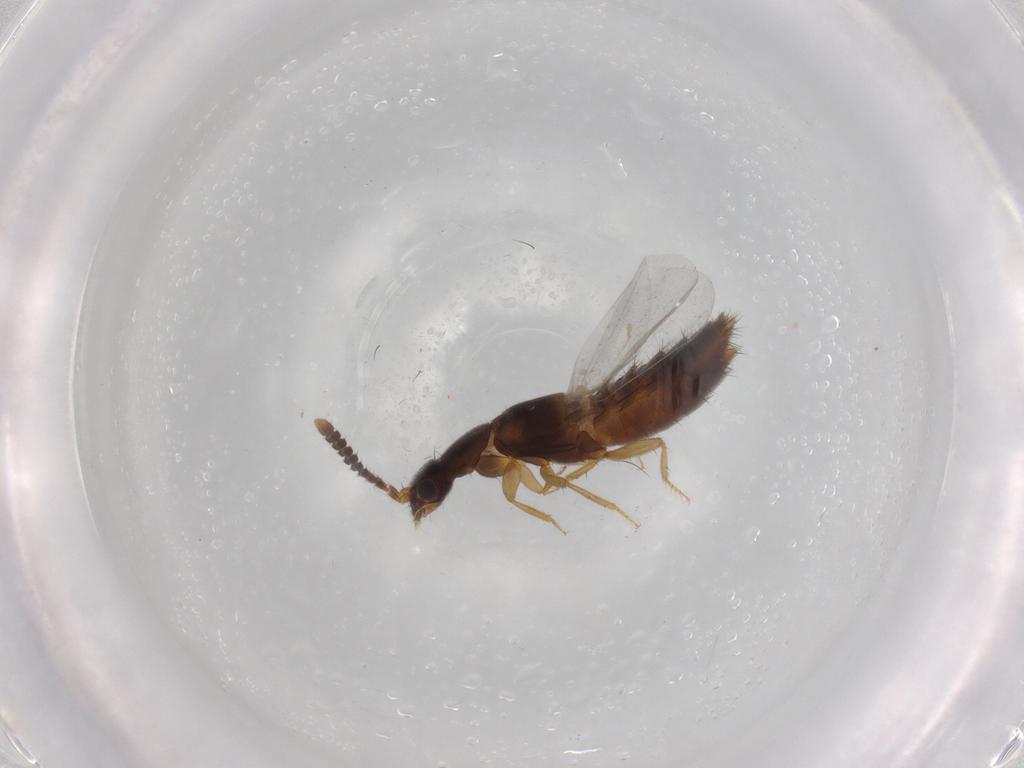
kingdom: Animalia
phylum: Arthropoda
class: Insecta
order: Coleoptera
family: Staphylinidae
